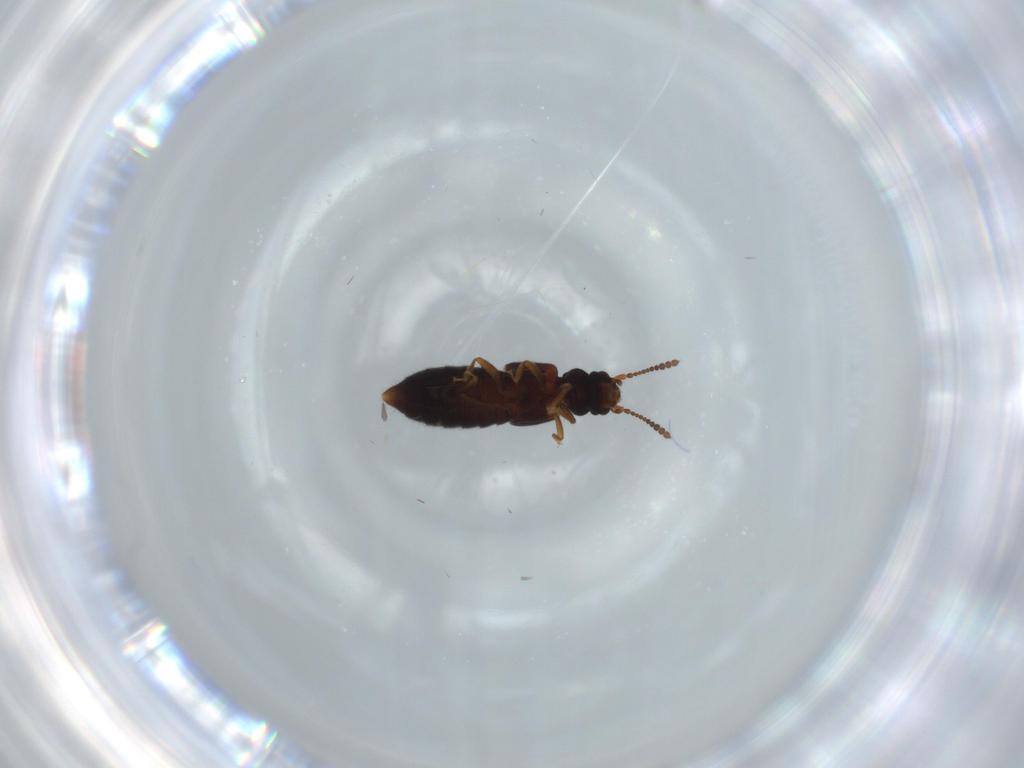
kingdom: Animalia
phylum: Arthropoda
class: Insecta
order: Coleoptera
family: Staphylinidae
